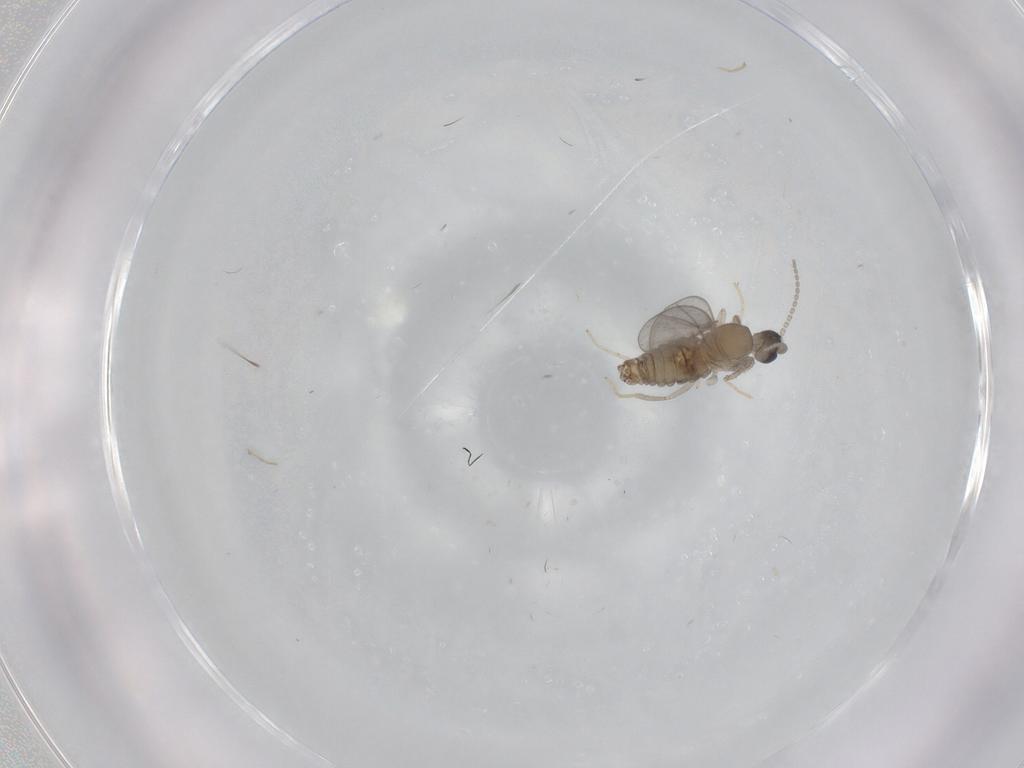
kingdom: Animalia
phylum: Arthropoda
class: Insecta
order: Diptera
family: Cecidomyiidae
